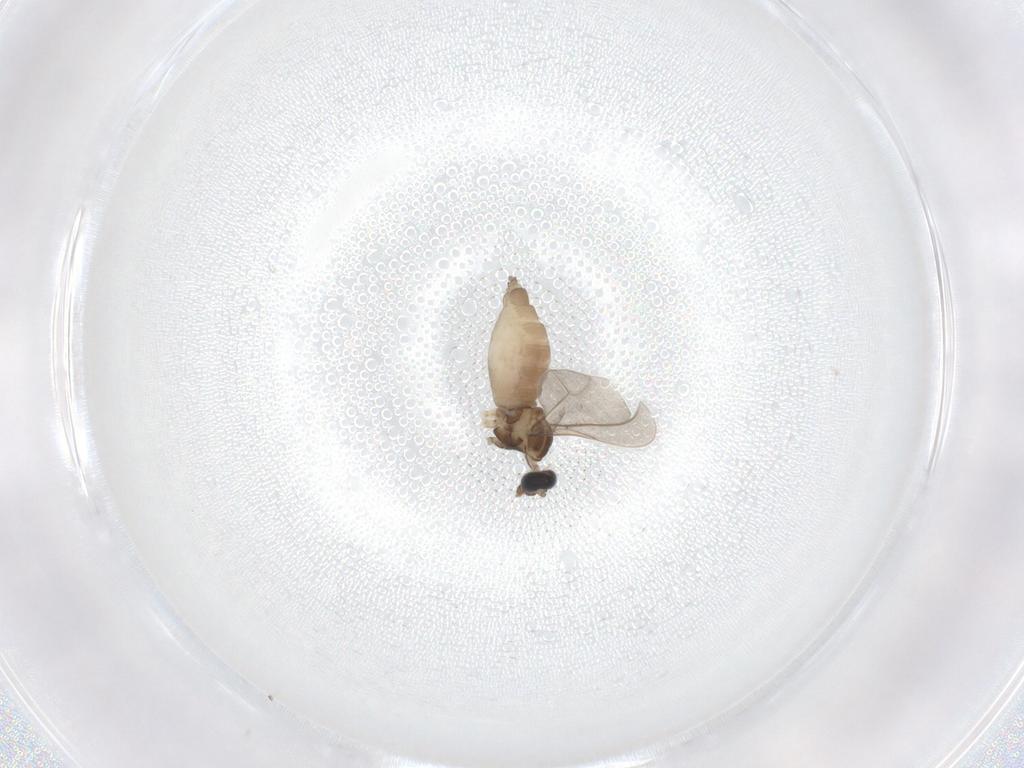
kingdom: Animalia
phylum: Arthropoda
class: Insecta
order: Diptera
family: Cecidomyiidae
